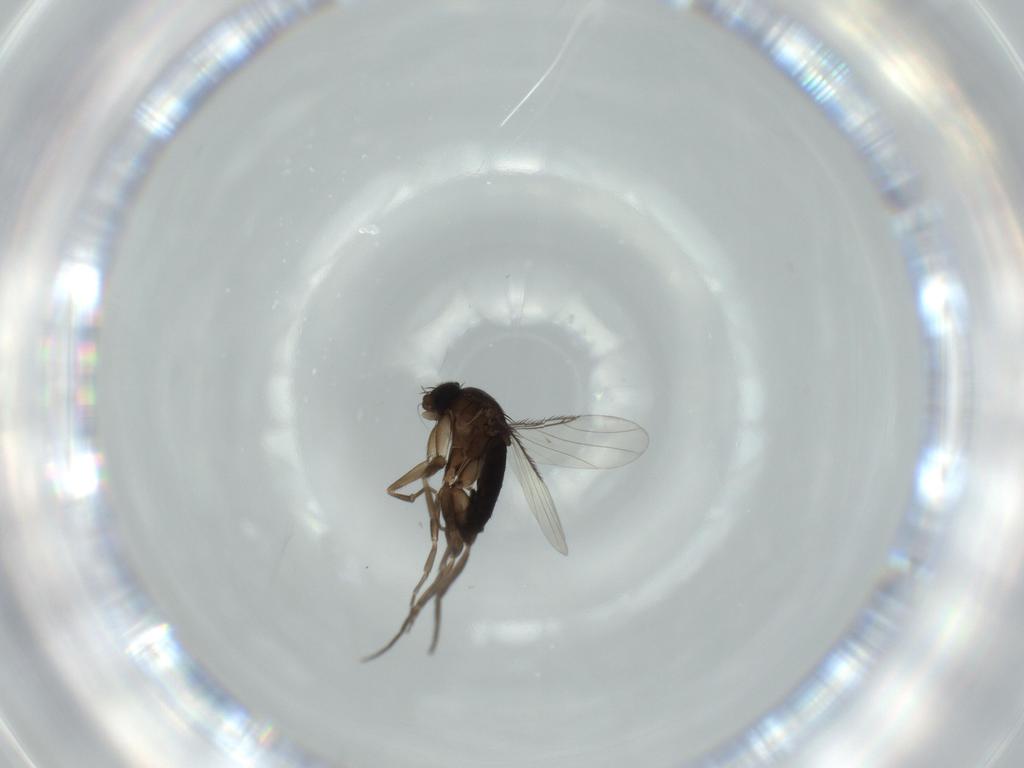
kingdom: Animalia
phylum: Arthropoda
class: Insecta
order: Diptera
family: Phoridae
